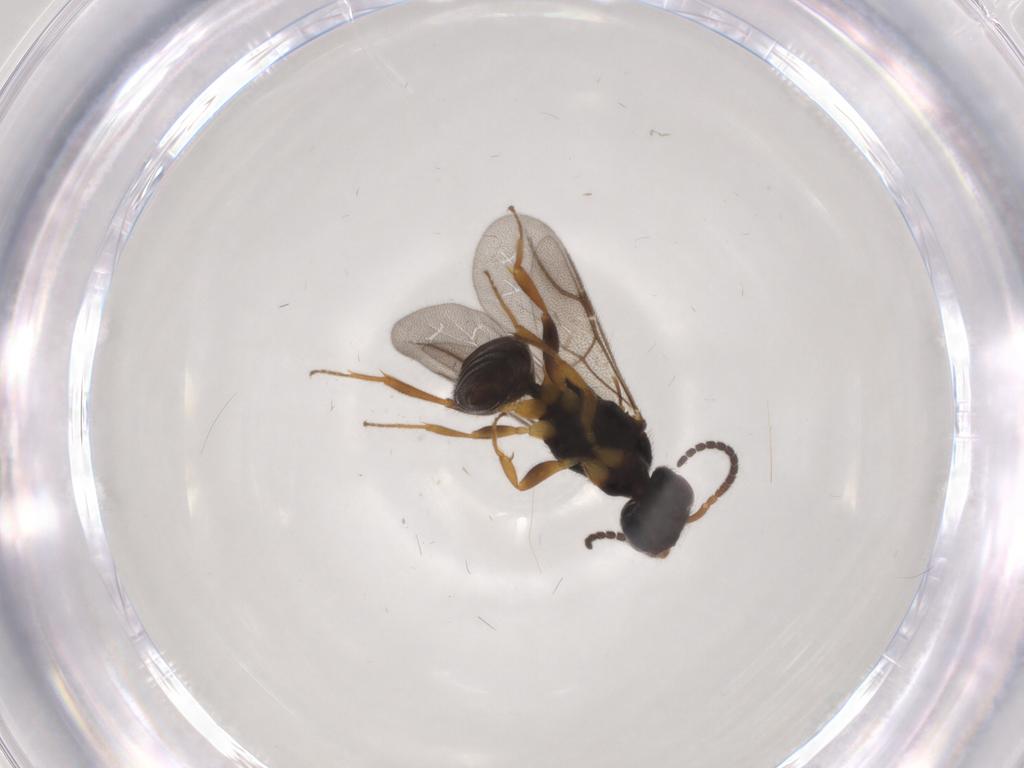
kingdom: Animalia
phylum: Arthropoda
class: Insecta
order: Hymenoptera
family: Bethylidae
